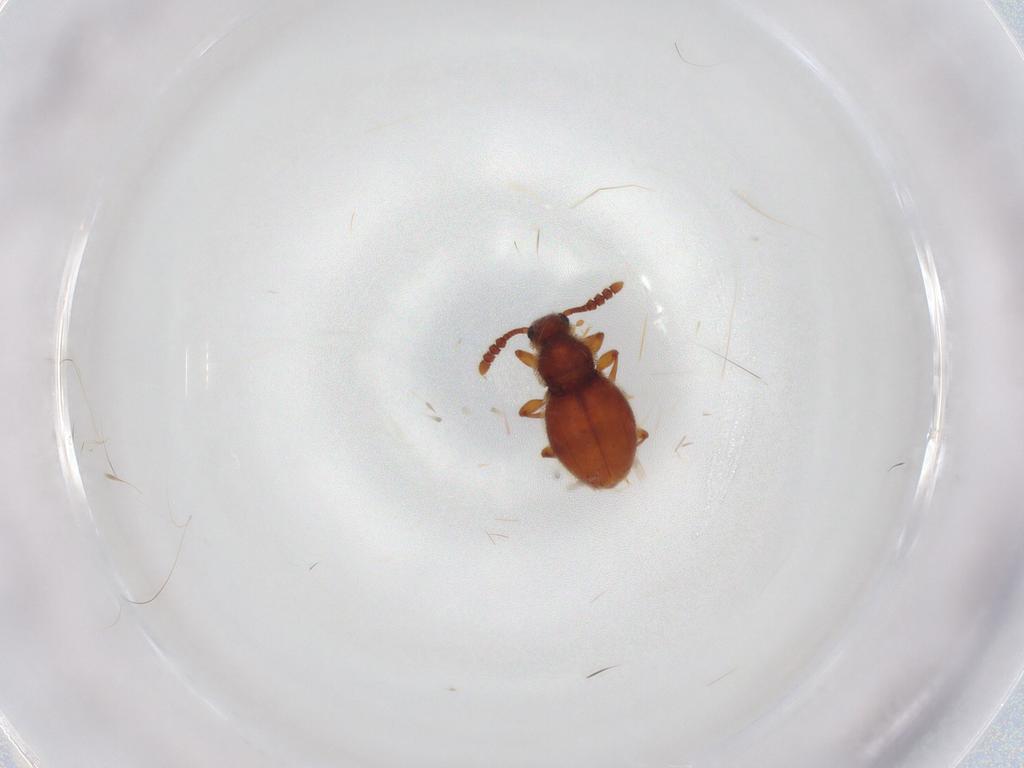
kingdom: Animalia
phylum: Arthropoda
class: Insecta
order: Coleoptera
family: Scarabaeidae
